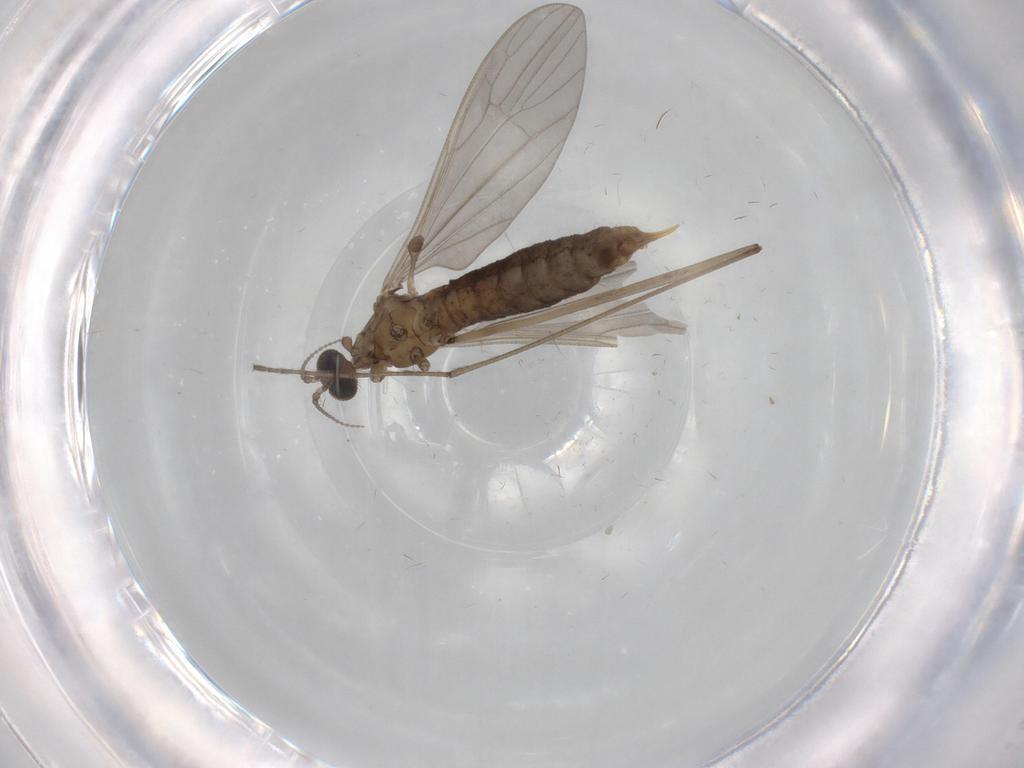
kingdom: Animalia
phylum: Arthropoda
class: Insecta
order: Diptera
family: Limoniidae
